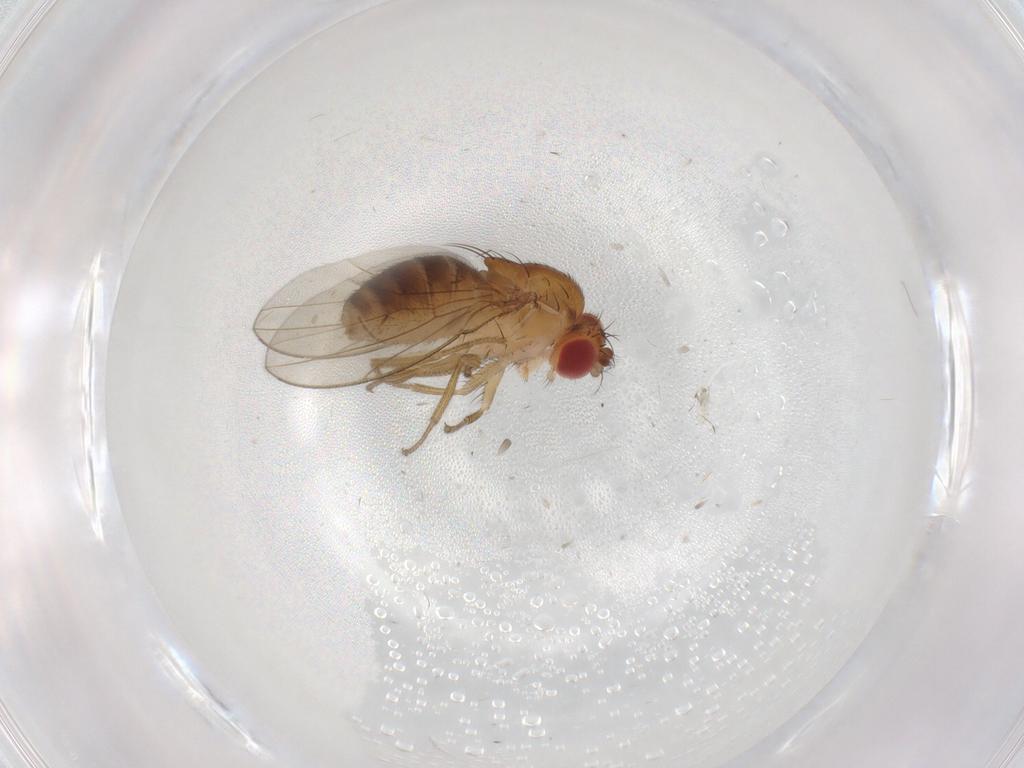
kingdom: Animalia
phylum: Arthropoda
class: Insecta
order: Diptera
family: Drosophilidae
